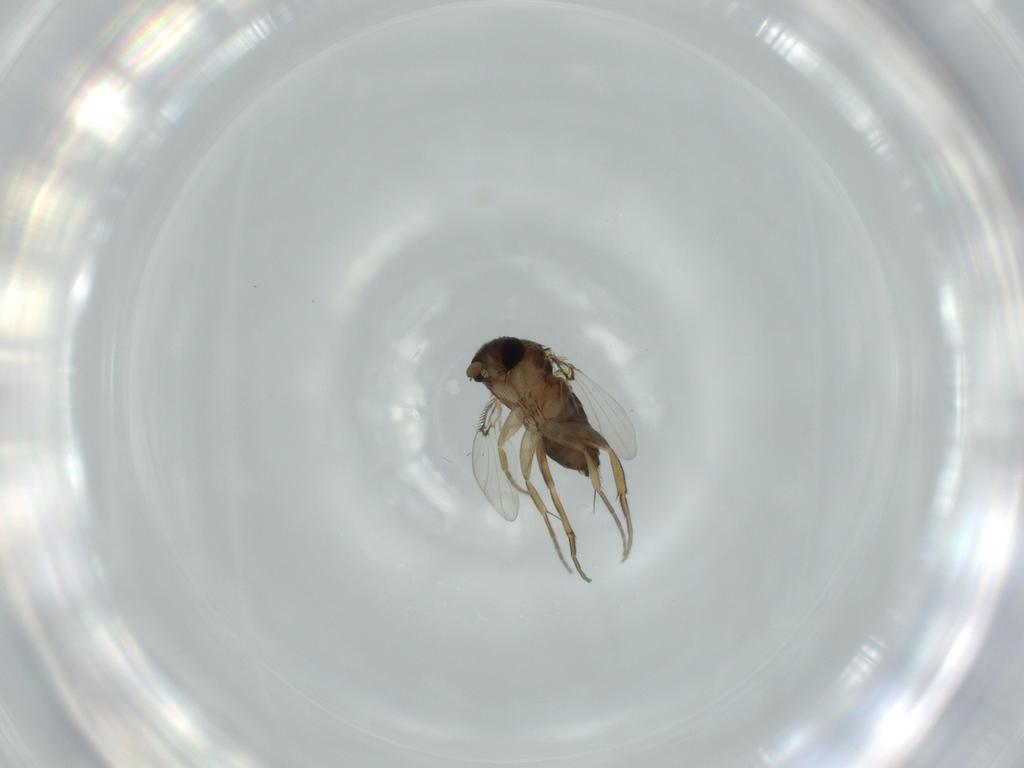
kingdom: Animalia
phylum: Arthropoda
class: Insecta
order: Diptera
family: Phoridae
